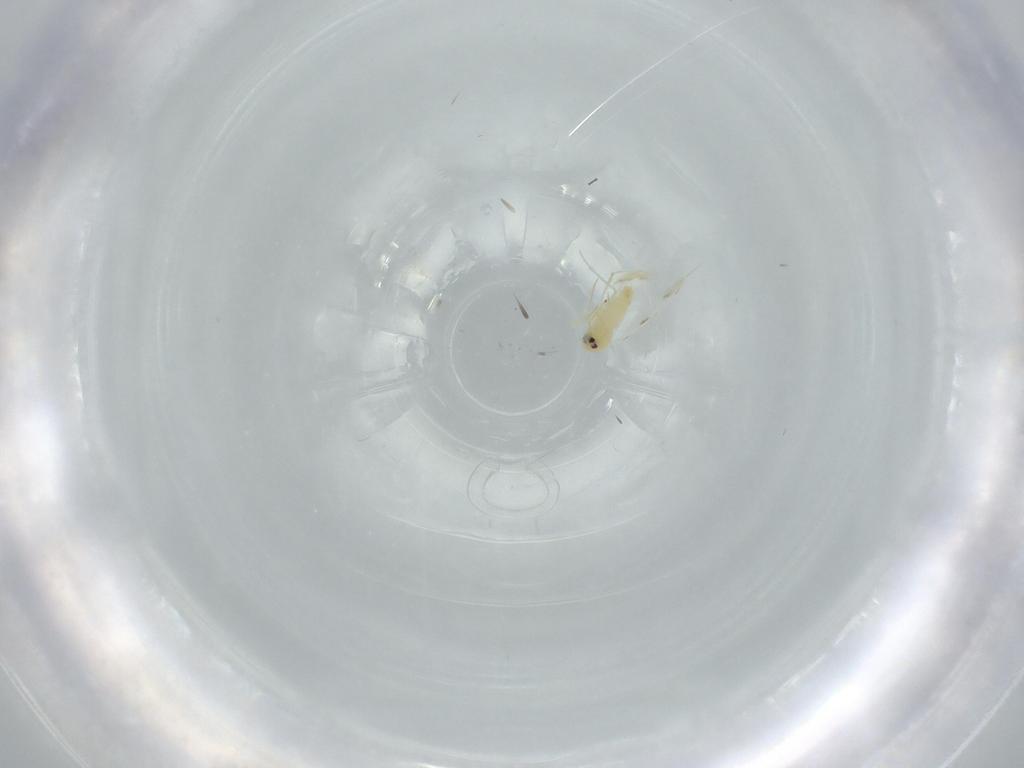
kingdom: Animalia
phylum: Arthropoda
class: Insecta
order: Hemiptera
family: Aleyrodidae
